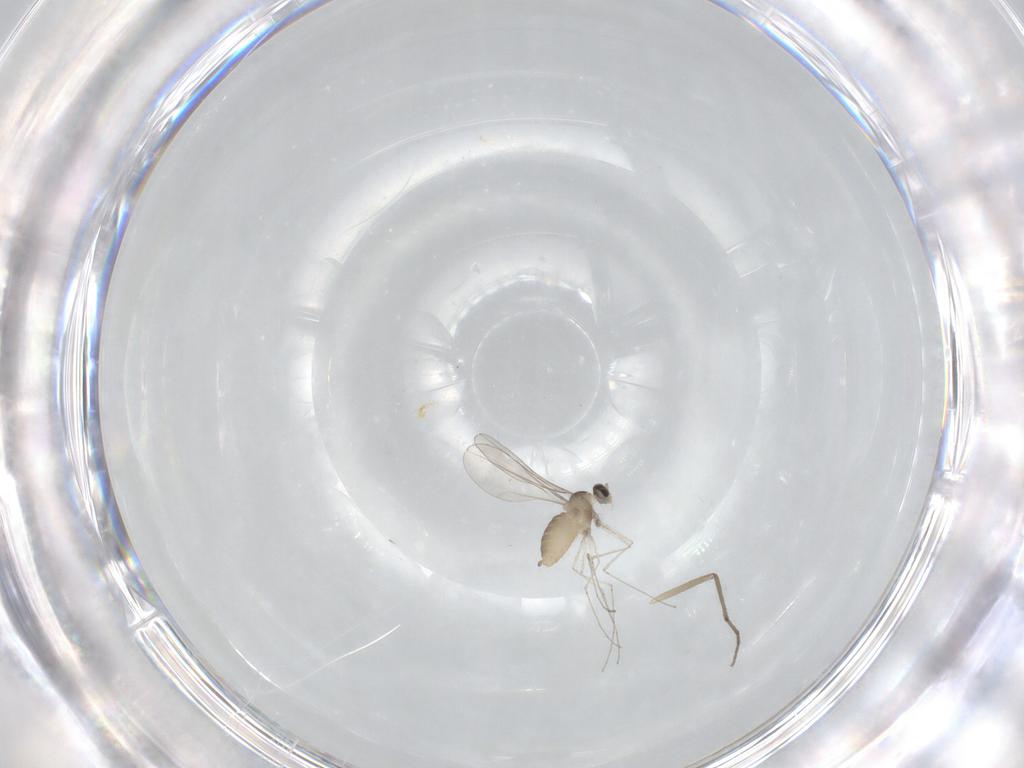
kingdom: Animalia
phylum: Arthropoda
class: Insecta
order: Diptera
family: Cecidomyiidae
